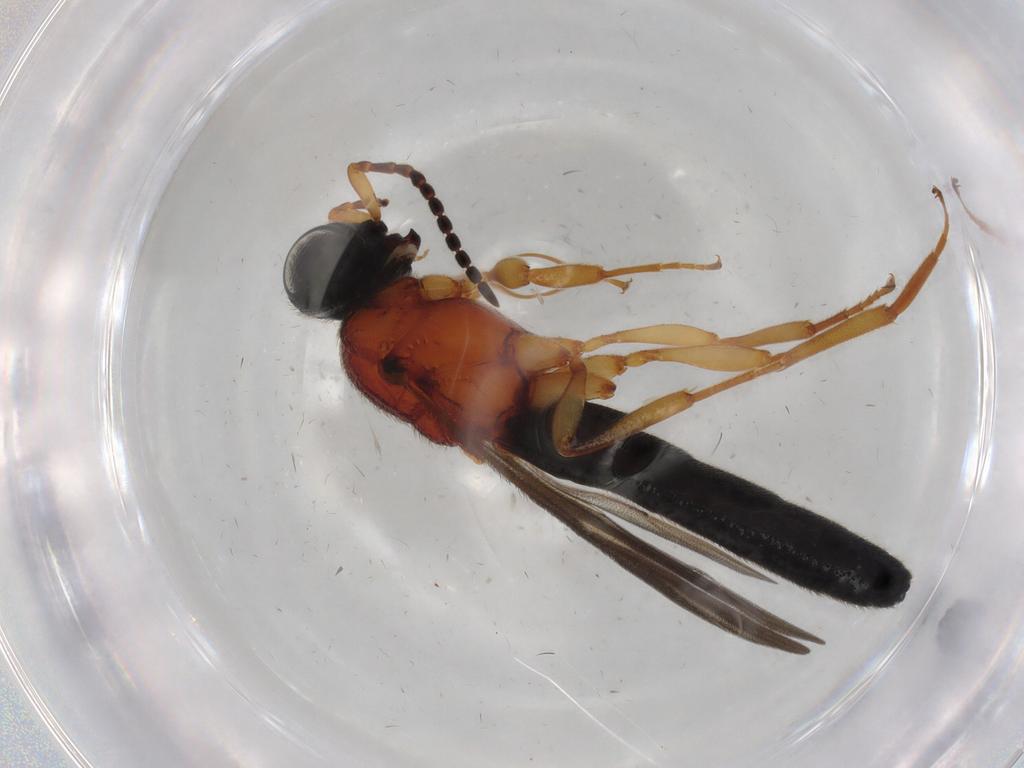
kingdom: Animalia
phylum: Arthropoda
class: Insecta
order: Hymenoptera
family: Scelionidae
